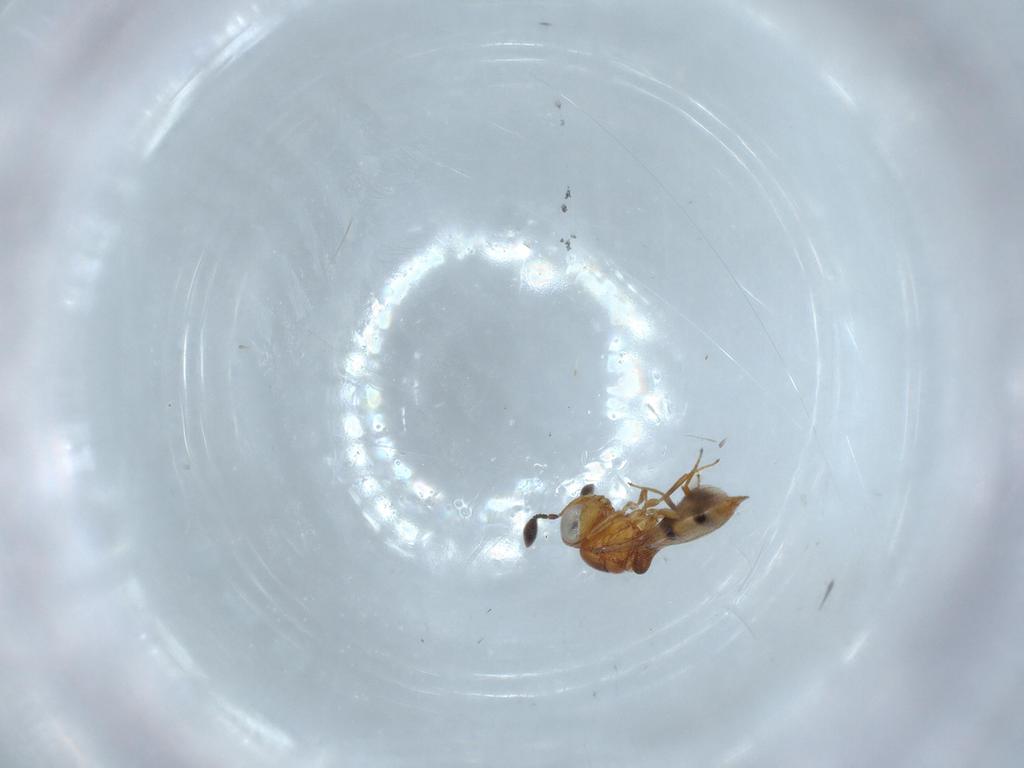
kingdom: Animalia
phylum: Arthropoda
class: Insecta
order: Hymenoptera
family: Scelionidae
